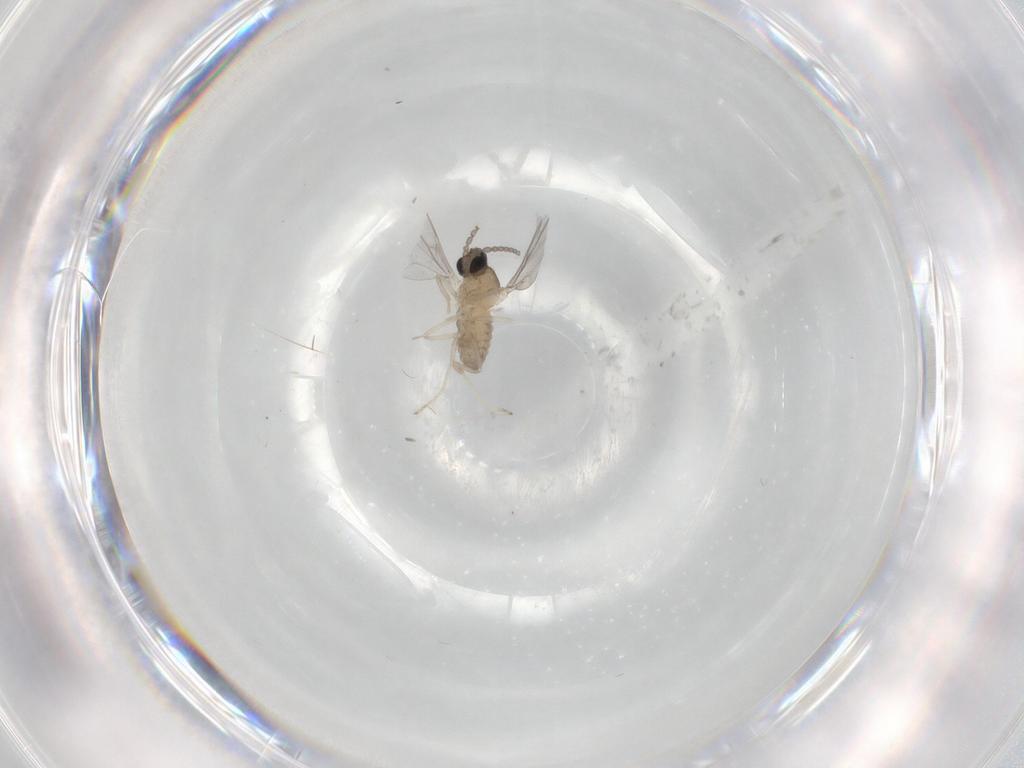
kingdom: Animalia
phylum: Arthropoda
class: Insecta
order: Diptera
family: Cecidomyiidae
